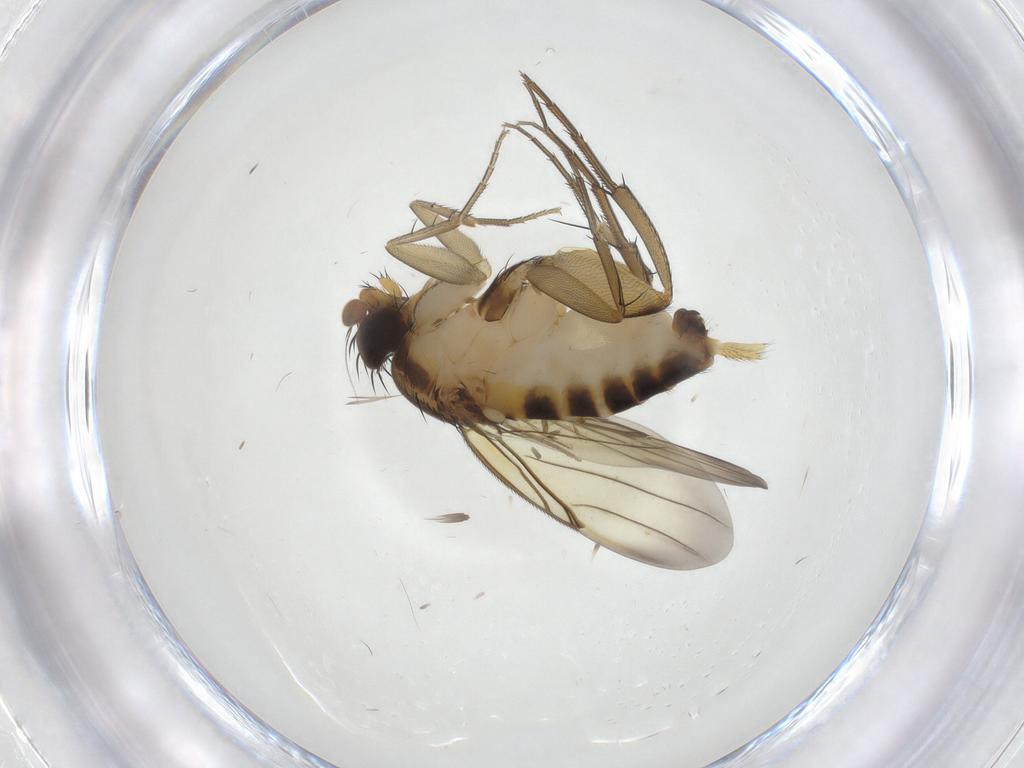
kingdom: Animalia
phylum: Arthropoda
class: Insecta
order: Diptera
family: Phoridae
